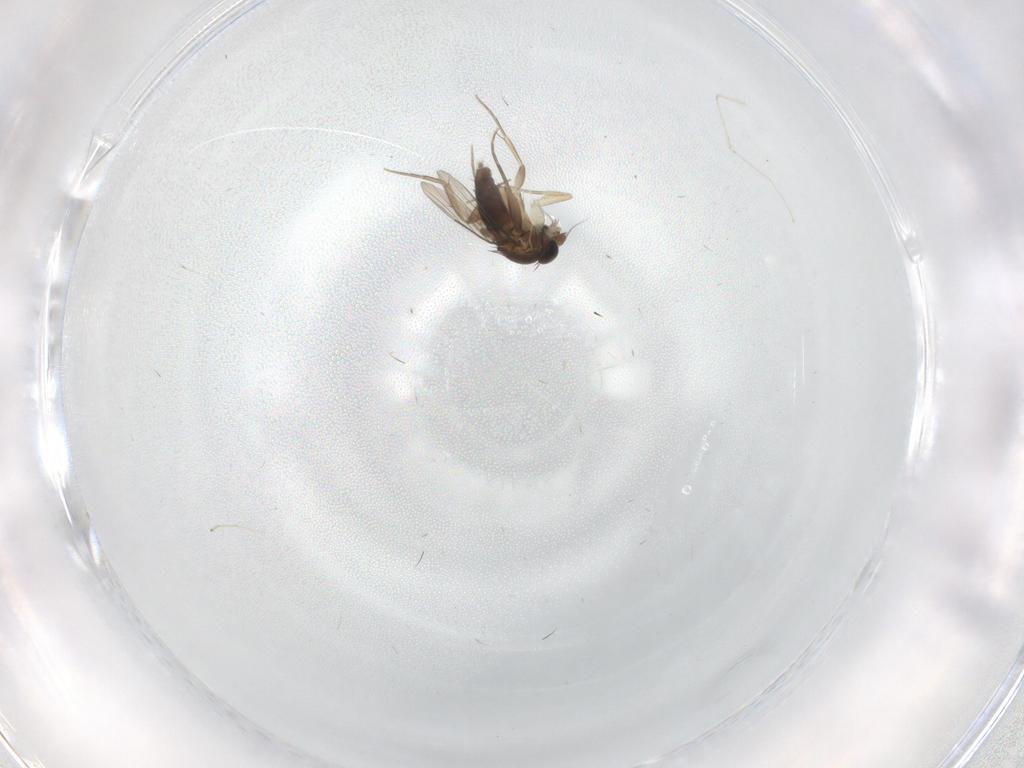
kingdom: Animalia
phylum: Arthropoda
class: Insecta
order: Diptera
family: Phoridae
